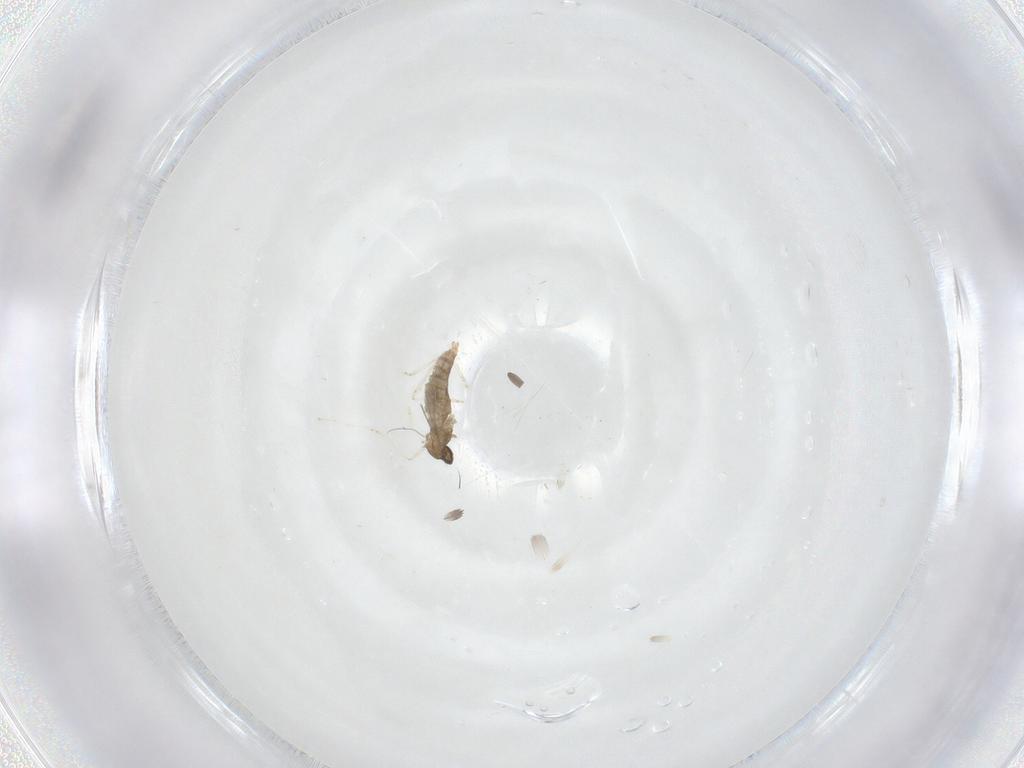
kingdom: Animalia
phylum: Arthropoda
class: Insecta
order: Diptera
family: Cecidomyiidae
